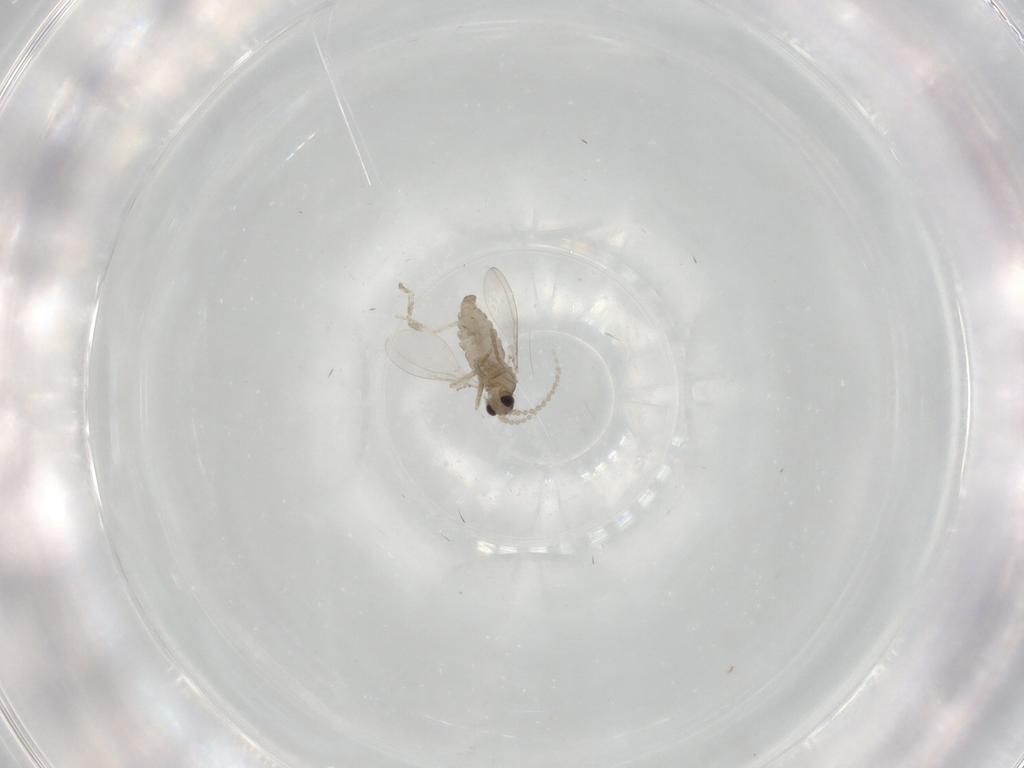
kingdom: Animalia
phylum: Arthropoda
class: Insecta
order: Diptera
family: Cecidomyiidae
